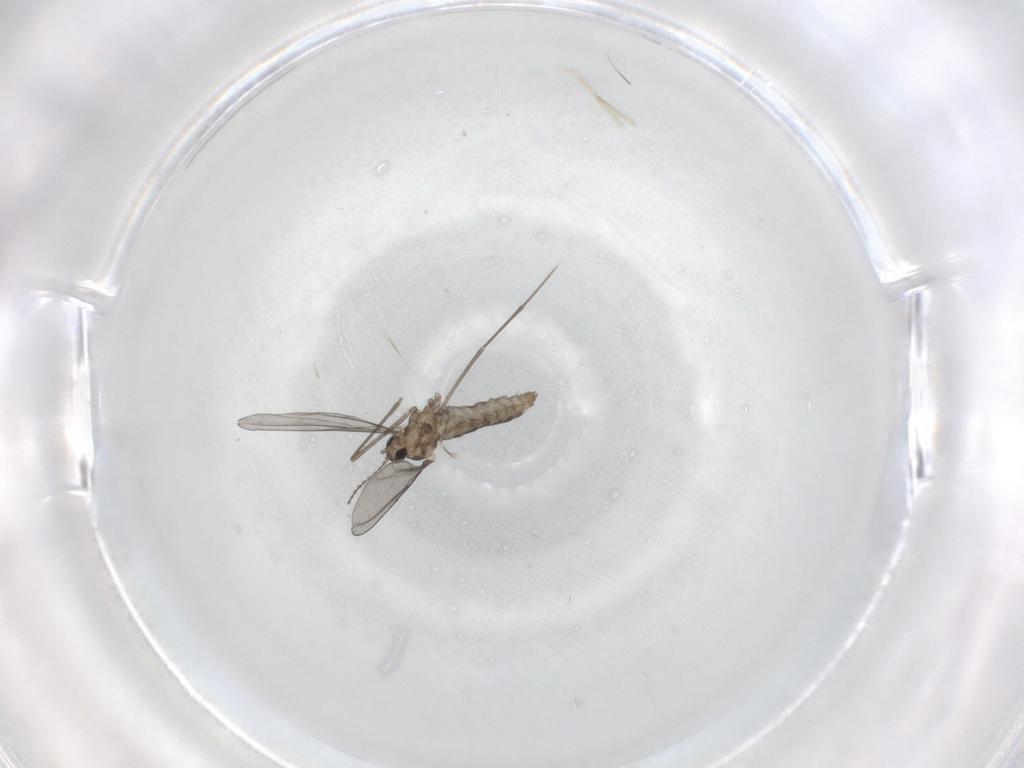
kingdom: Animalia
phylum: Arthropoda
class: Insecta
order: Diptera
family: Cecidomyiidae
